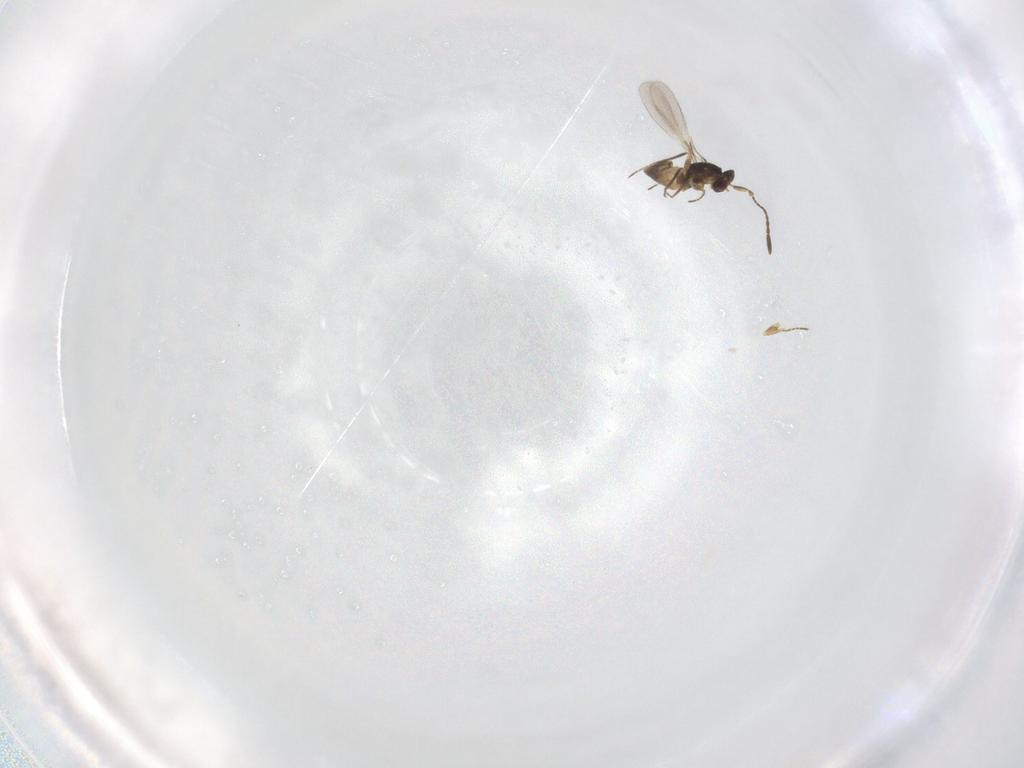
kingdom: Animalia
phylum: Arthropoda
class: Insecta
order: Hymenoptera
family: Mymaridae
